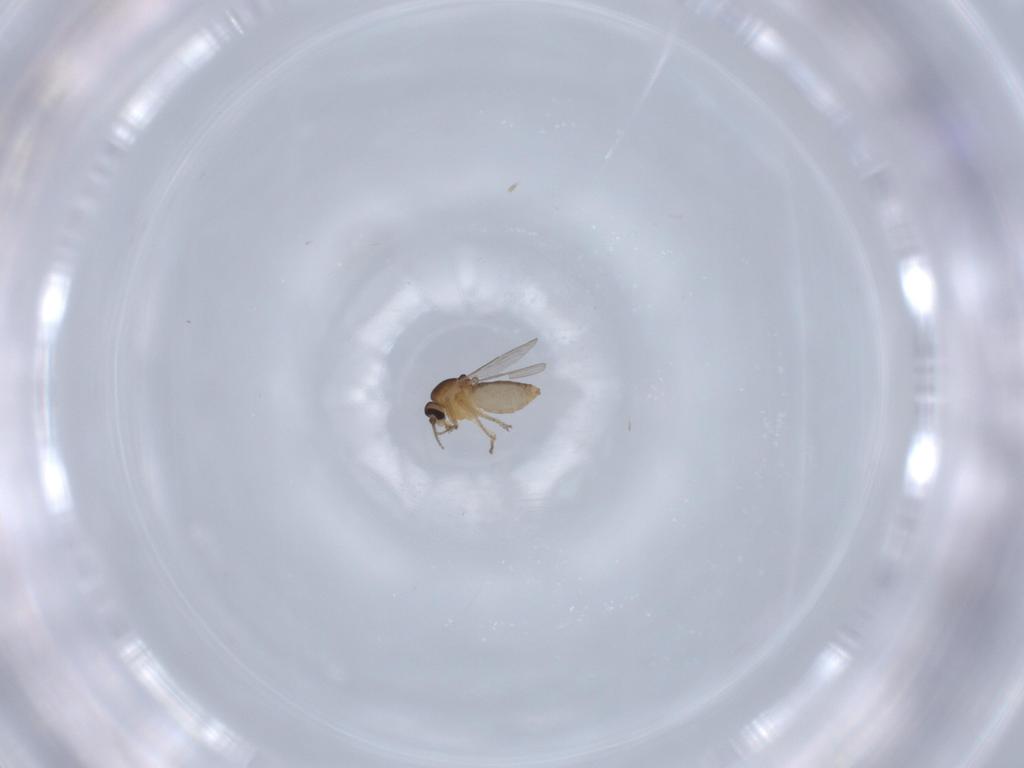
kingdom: Animalia
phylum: Arthropoda
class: Insecta
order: Diptera
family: Ceratopogonidae
